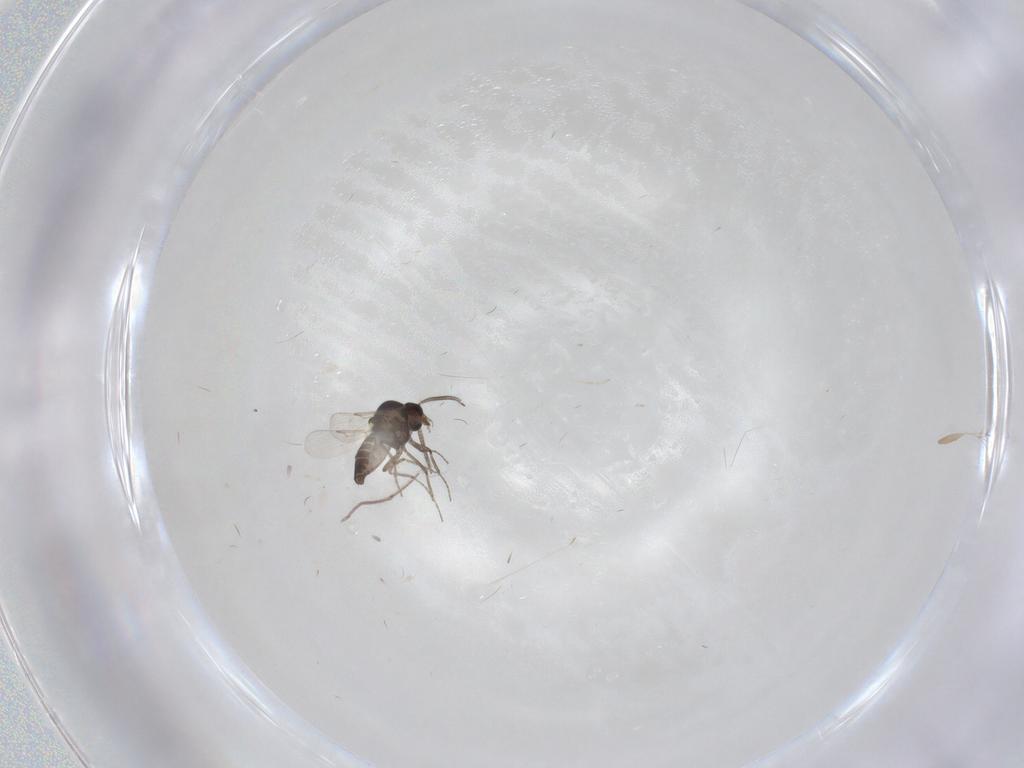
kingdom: Animalia
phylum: Arthropoda
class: Insecta
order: Diptera
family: Ceratopogonidae
